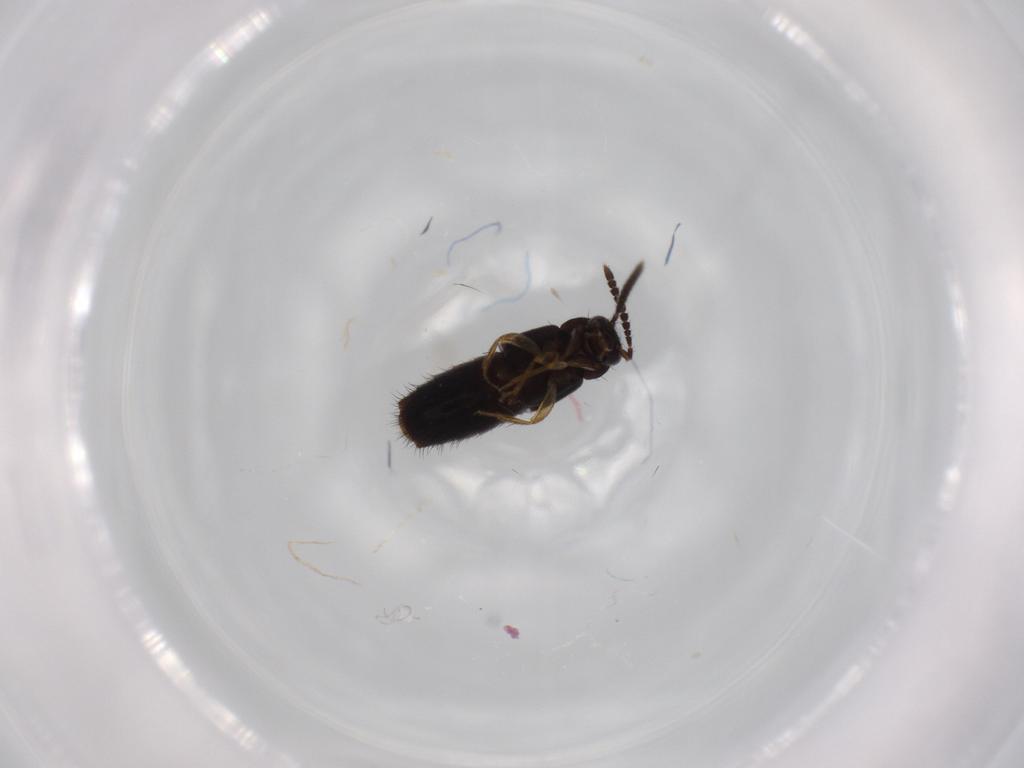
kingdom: Animalia
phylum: Arthropoda
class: Insecta
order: Coleoptera
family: Staphylinidae
